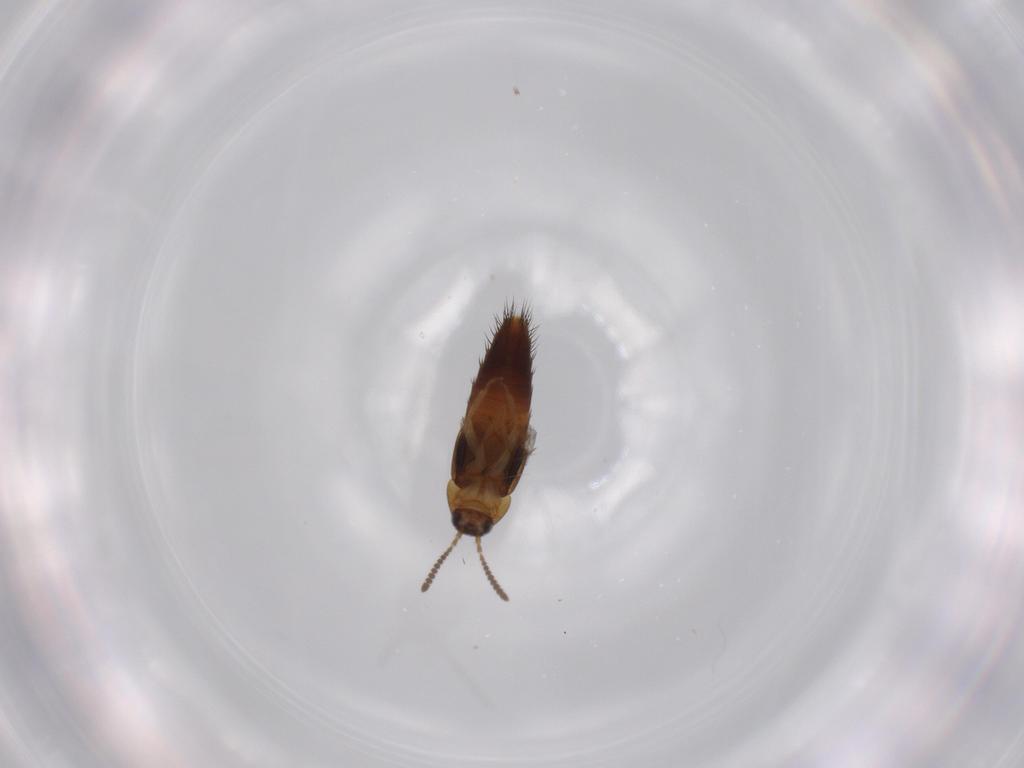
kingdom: Animalia
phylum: Arthropoda
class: Insecta
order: Coleoptera
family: Staphylinidae
